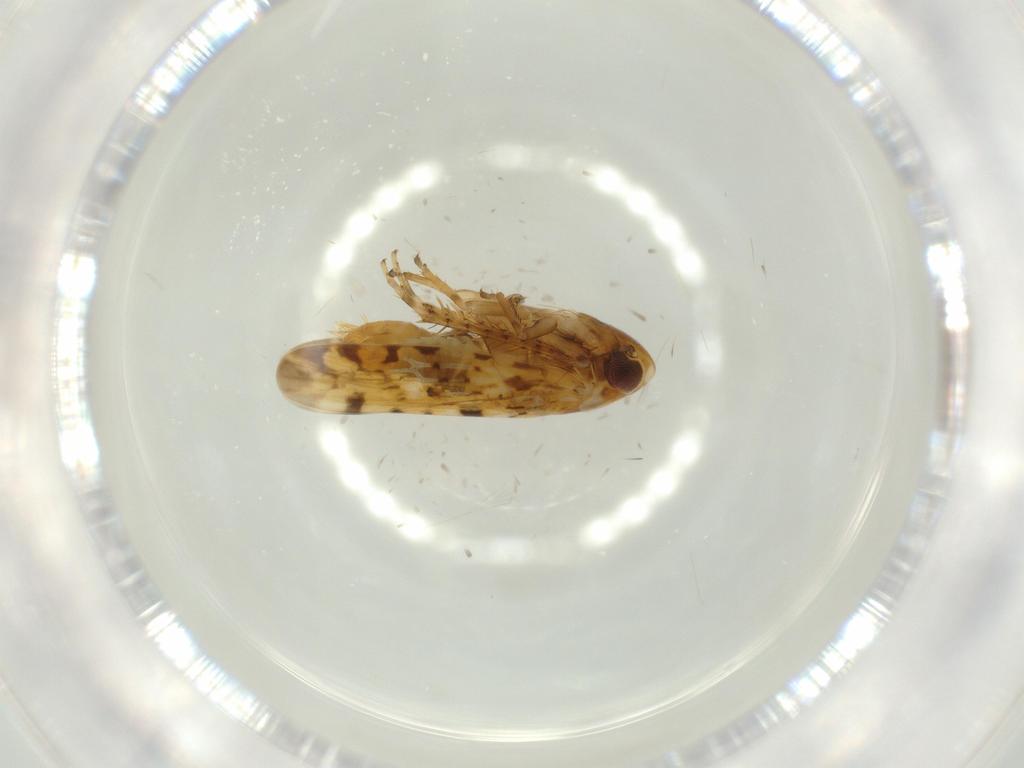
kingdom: Animalia
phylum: Arthropoda
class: Insecta
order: Hemiptera
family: Cicadellidae
